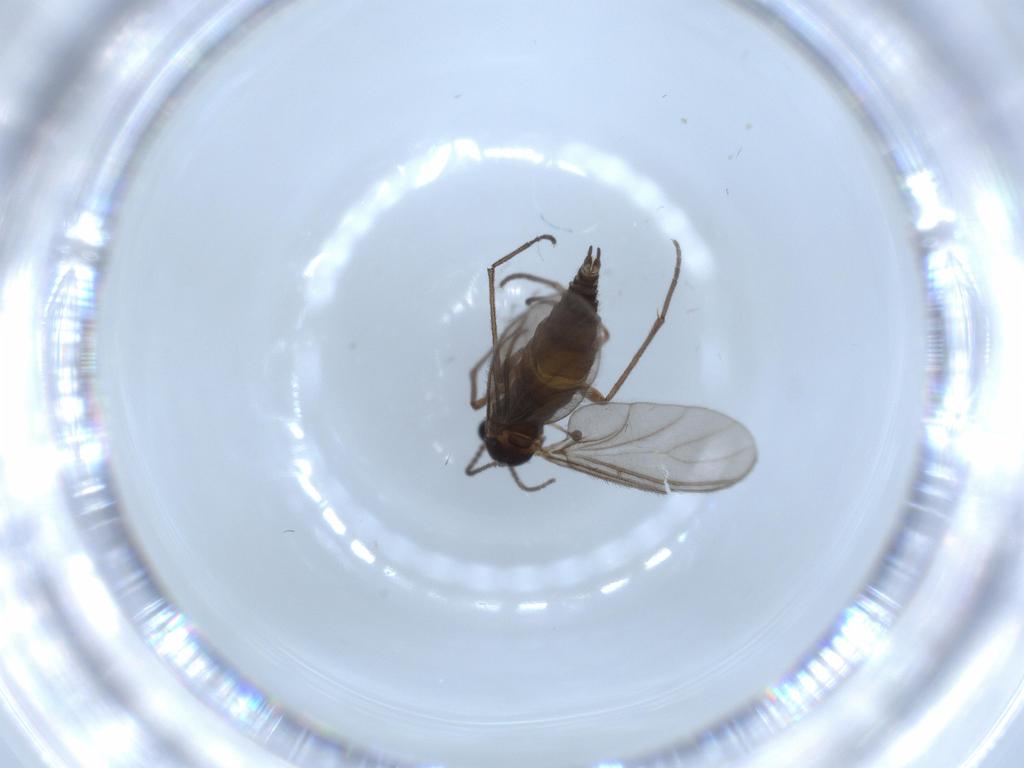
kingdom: Animalia
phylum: Arthropoda
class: Insecta
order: Diptera
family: Sciaridae
